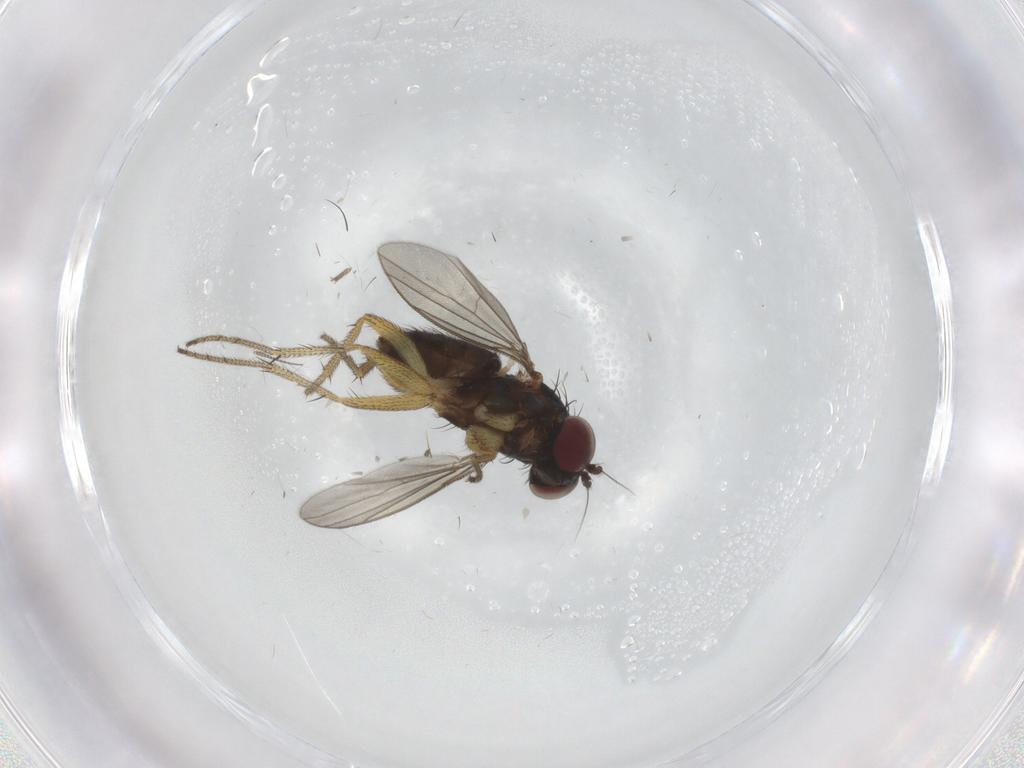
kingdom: Animalia
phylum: Arthropoda
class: Insecta
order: Diptera
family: Chironomidae
